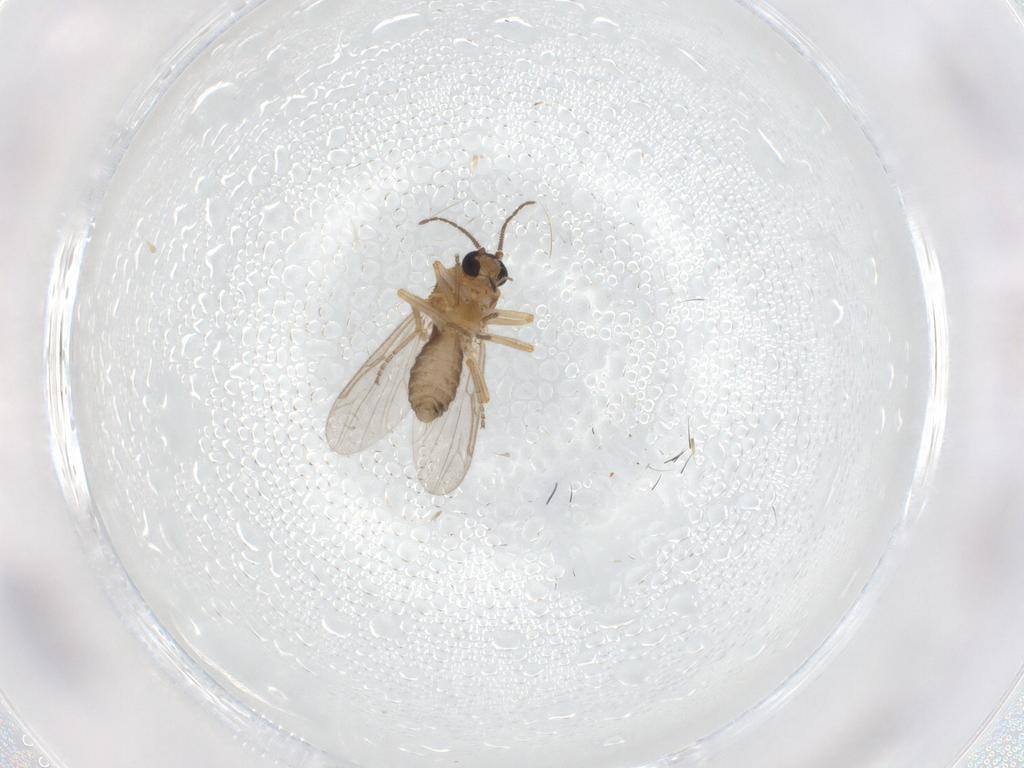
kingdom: Animalia
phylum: Arthropoda
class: Insecta
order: Diptera
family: Ceratopogonidae
